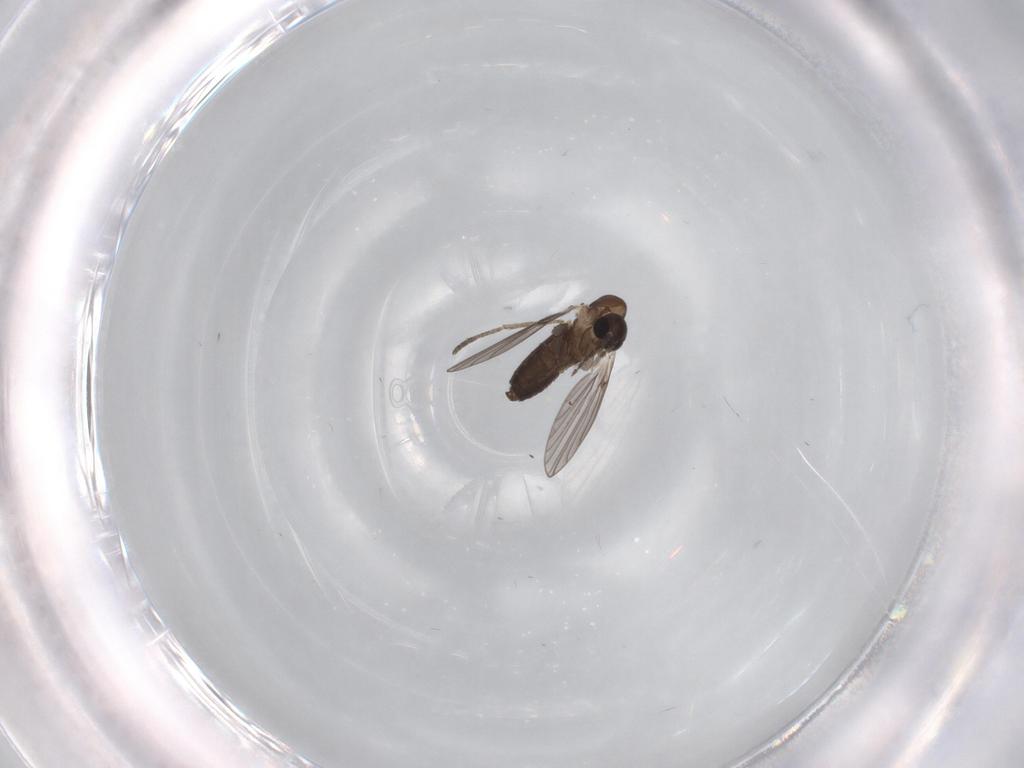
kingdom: Animalia
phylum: Arthropoda
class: Insecta
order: Diptera
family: Psychodidae
